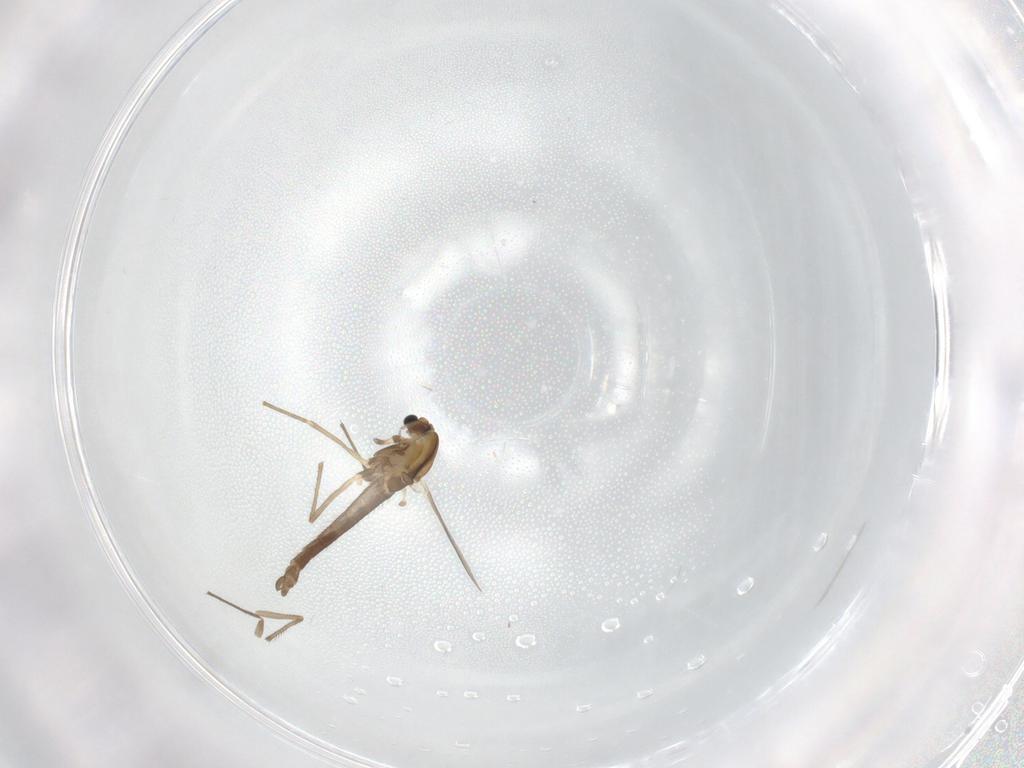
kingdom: Animalia
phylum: Arthropoda
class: Insecta
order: Diptera
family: Chironomidae
